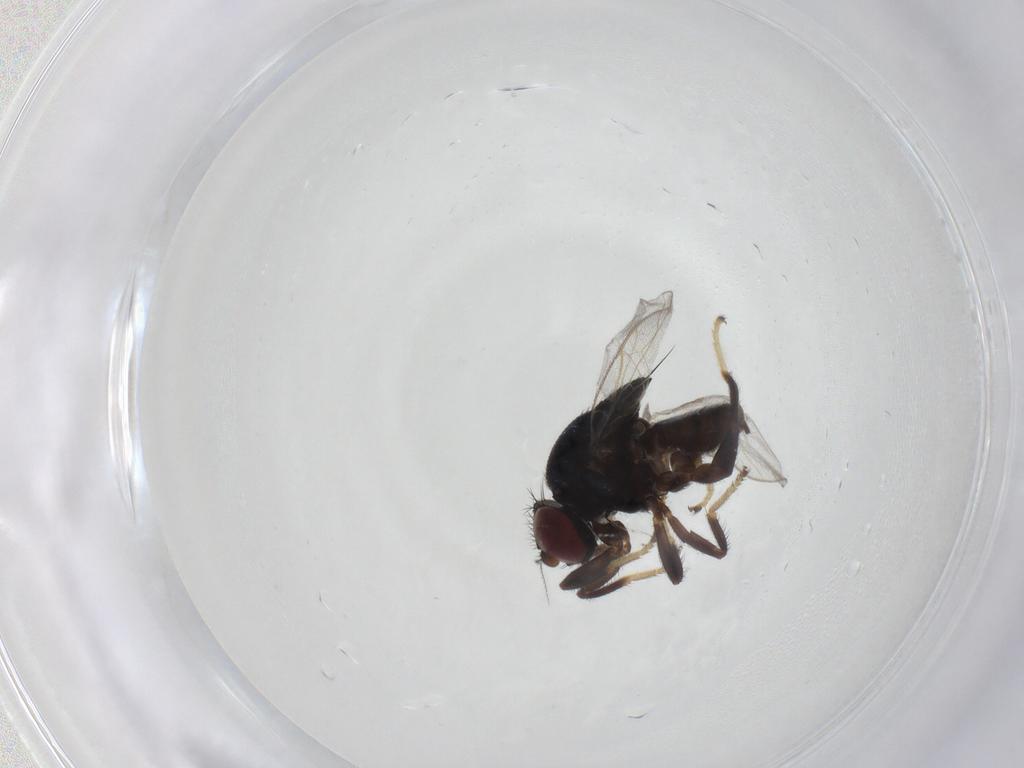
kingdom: Animalia
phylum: Arthropoda
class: Insecta
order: Diptera
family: Chloropidae
